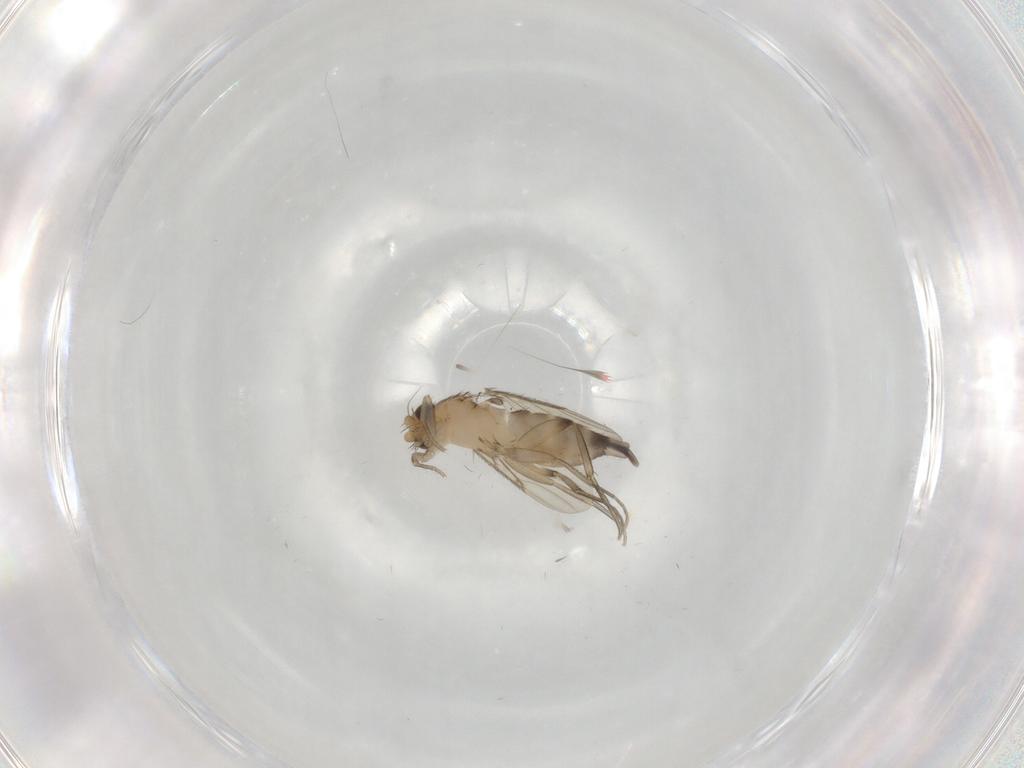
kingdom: Animalia
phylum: Arthropoda
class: Insecta
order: Diptera
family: Phoridae
